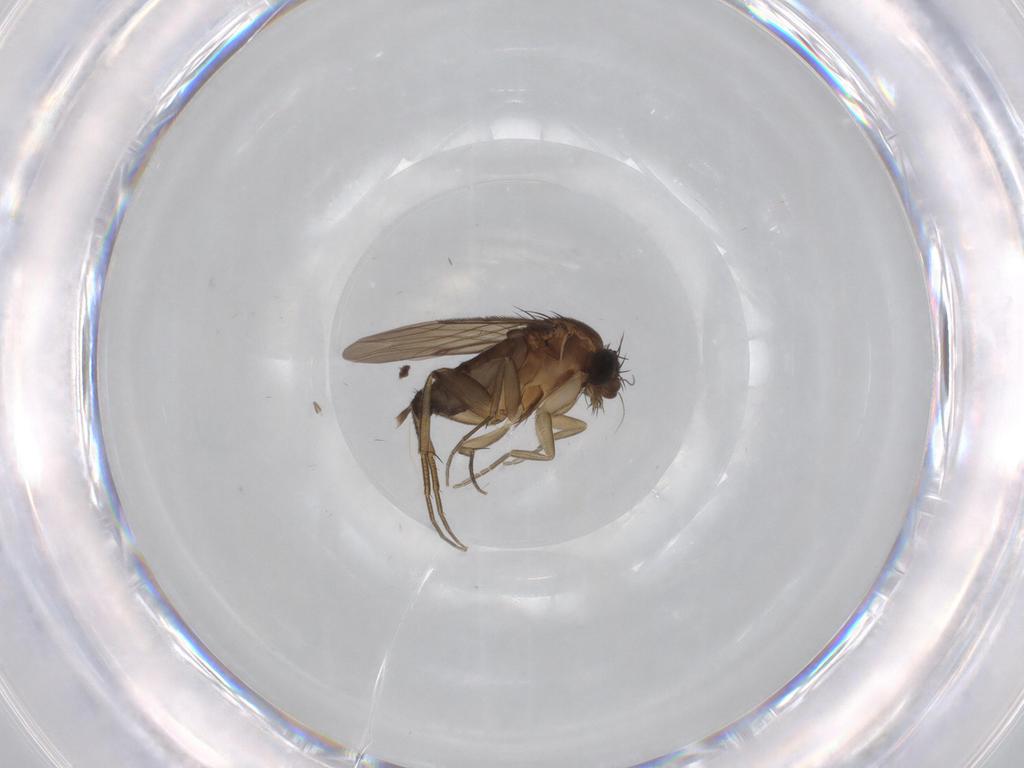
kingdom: Animalia
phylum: Arthropoda
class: Insecta
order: Diptera
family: Phoridae
